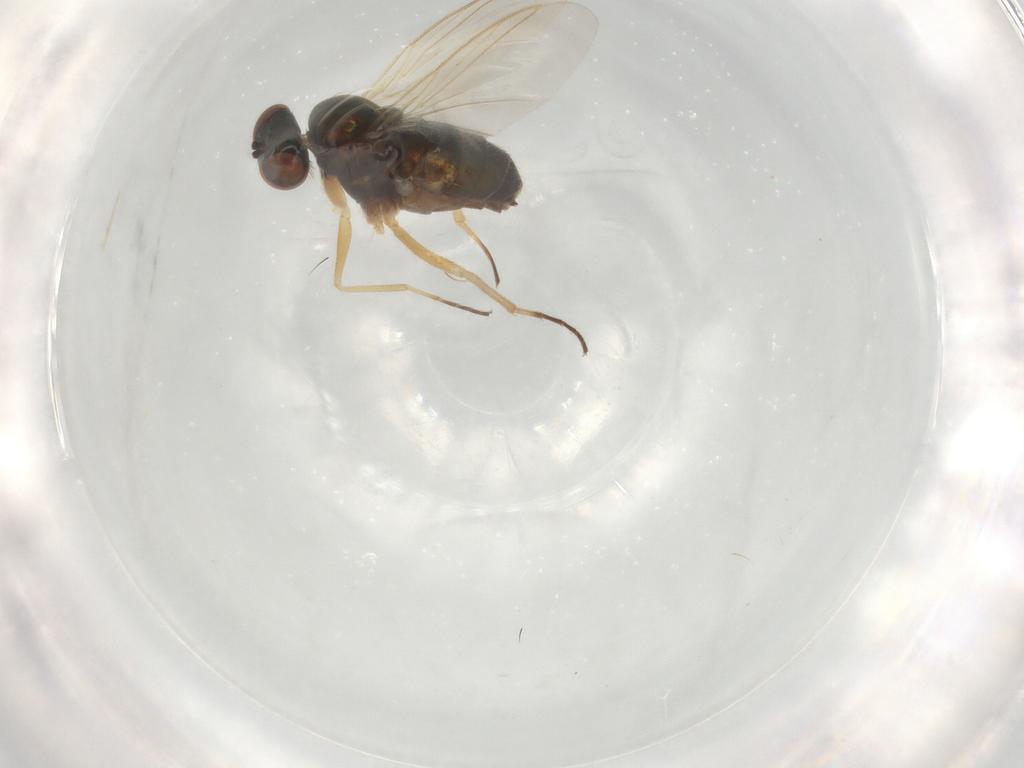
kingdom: Animalia
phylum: Arthropoda
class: Insecta
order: Diptera
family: Dolichopodidae
